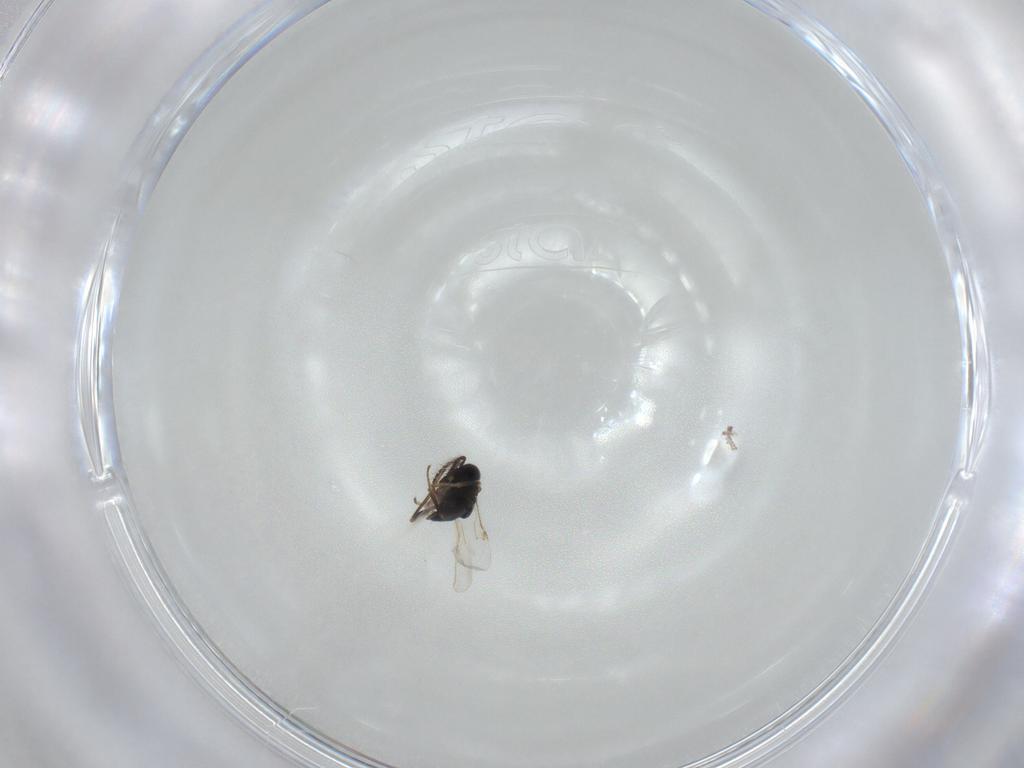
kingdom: Animalia
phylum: Arthropoda
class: Insecta
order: Hymenoptera
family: Encyrtidae
